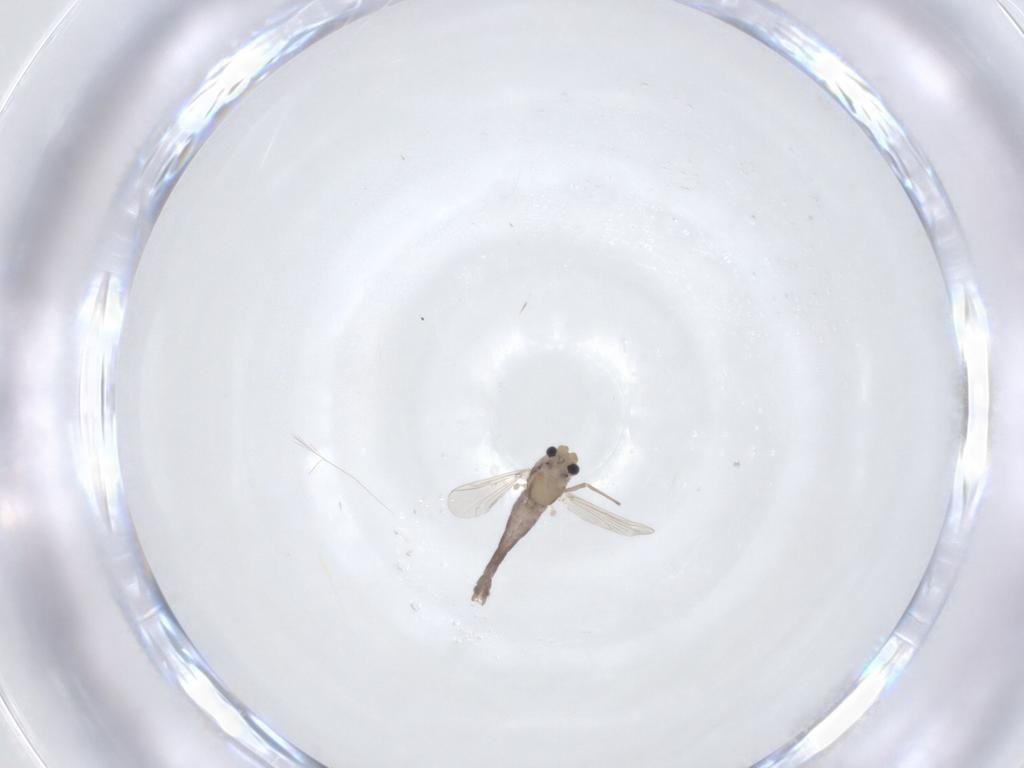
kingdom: Animalia
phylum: Arthropoda
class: Insecta
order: Diptera
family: Chironomidae
